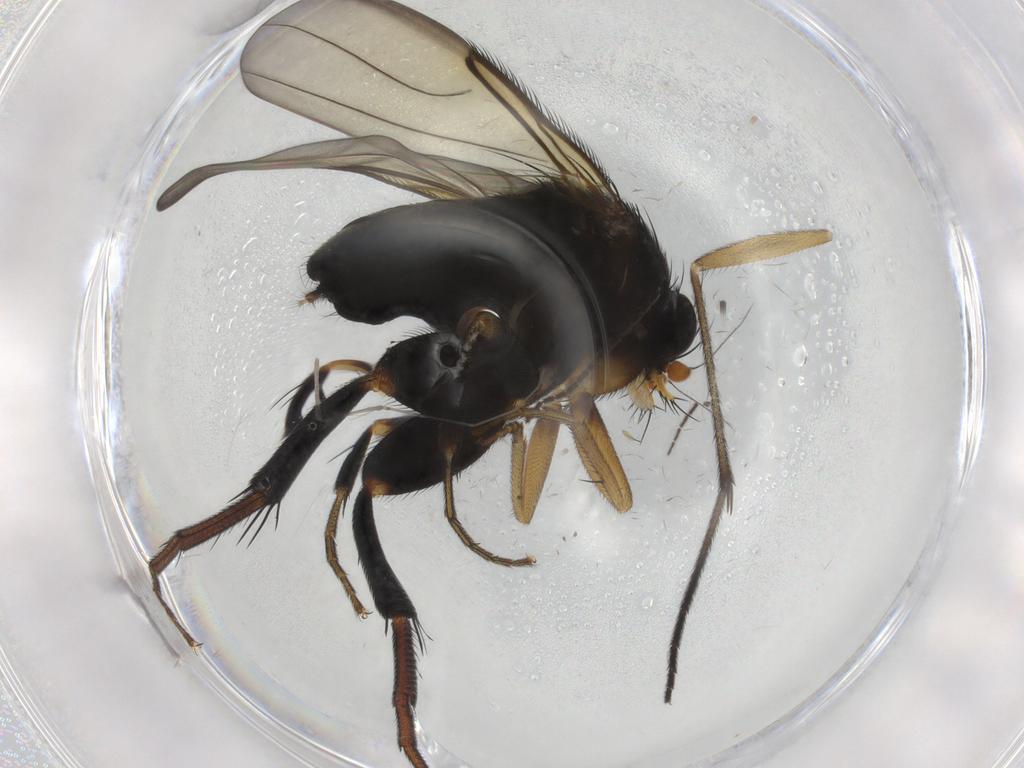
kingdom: Animalia
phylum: Arthropoda
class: Insecta
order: Diptera
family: Phoridae
